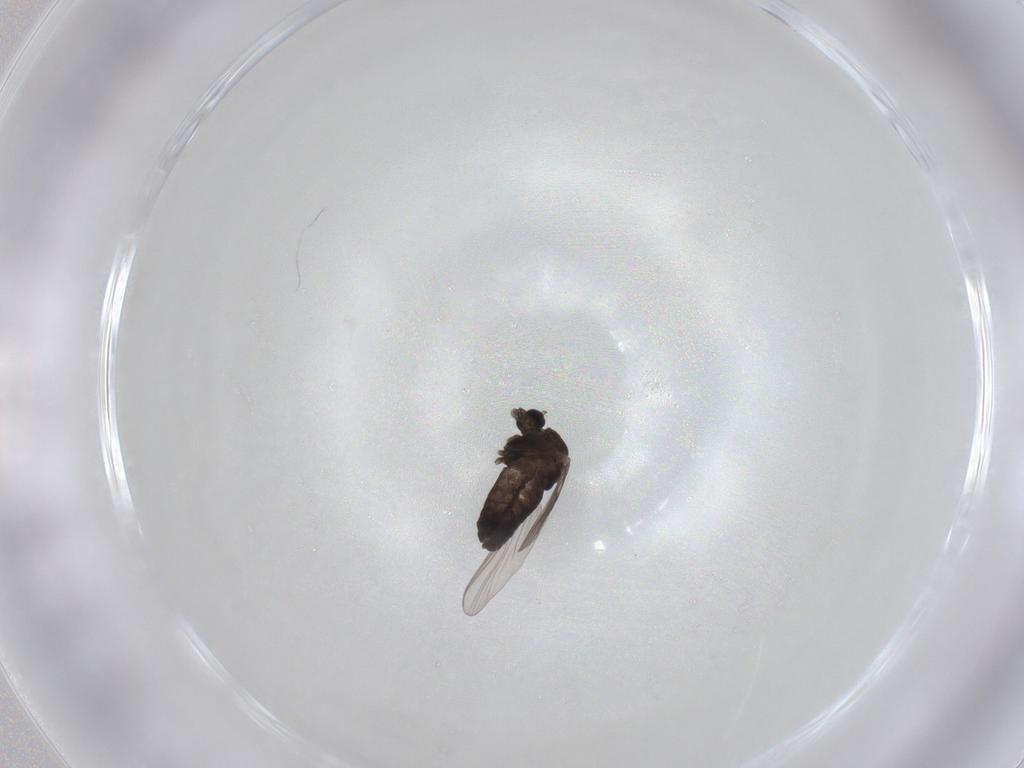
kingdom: Animalia
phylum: Arthropoda
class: Insecta
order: Diptera
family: Chironomidae
